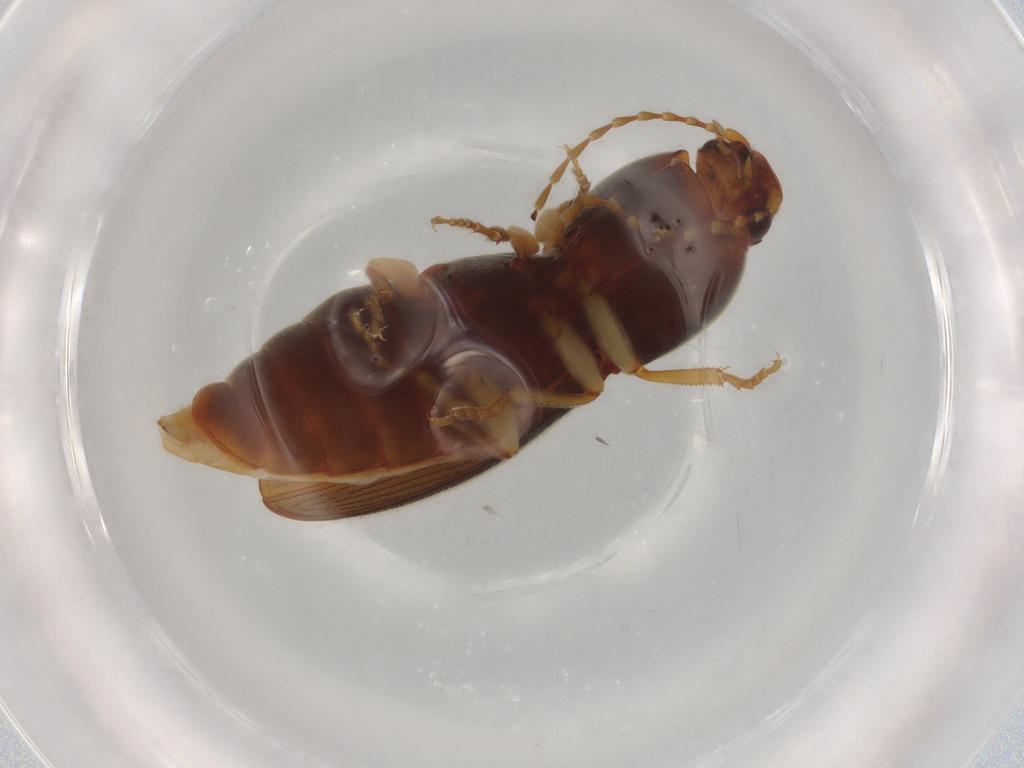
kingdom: Animalia
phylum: Arthropoda
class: Insecta
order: Coleoptera
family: Elateridae
